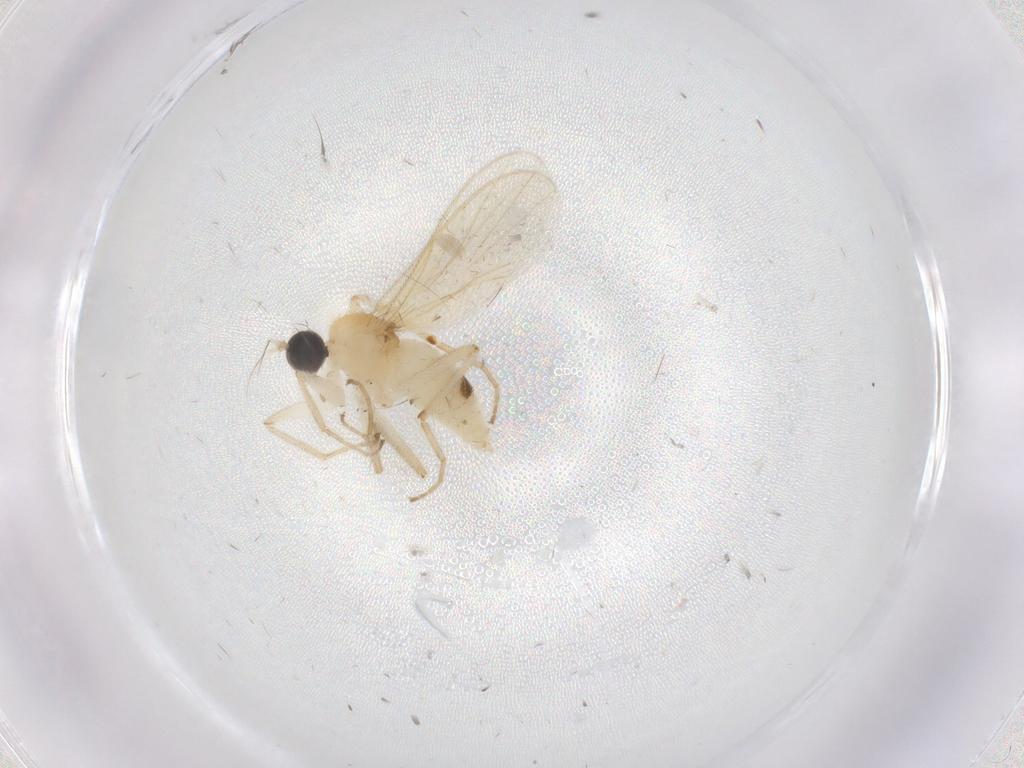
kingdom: Animalia
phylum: Arthropoda
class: Insecta
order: Diptera
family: Hybotidae
